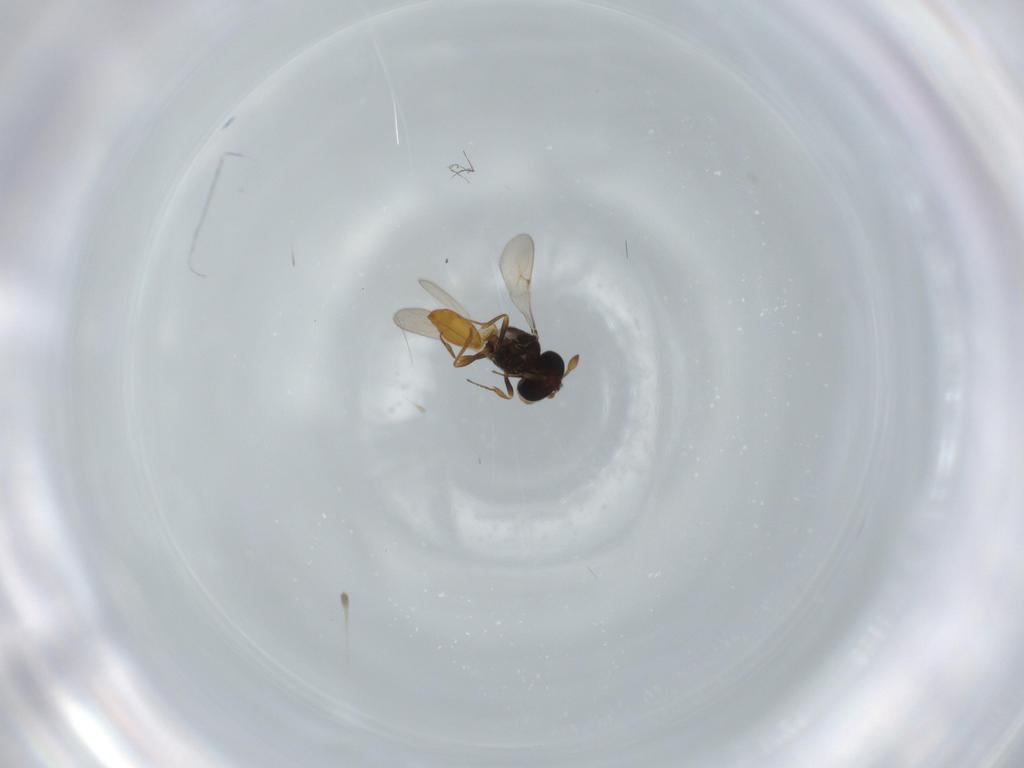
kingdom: Animalia
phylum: Arthropoda
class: Insecta
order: Hymenoptera
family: Scelionidae
